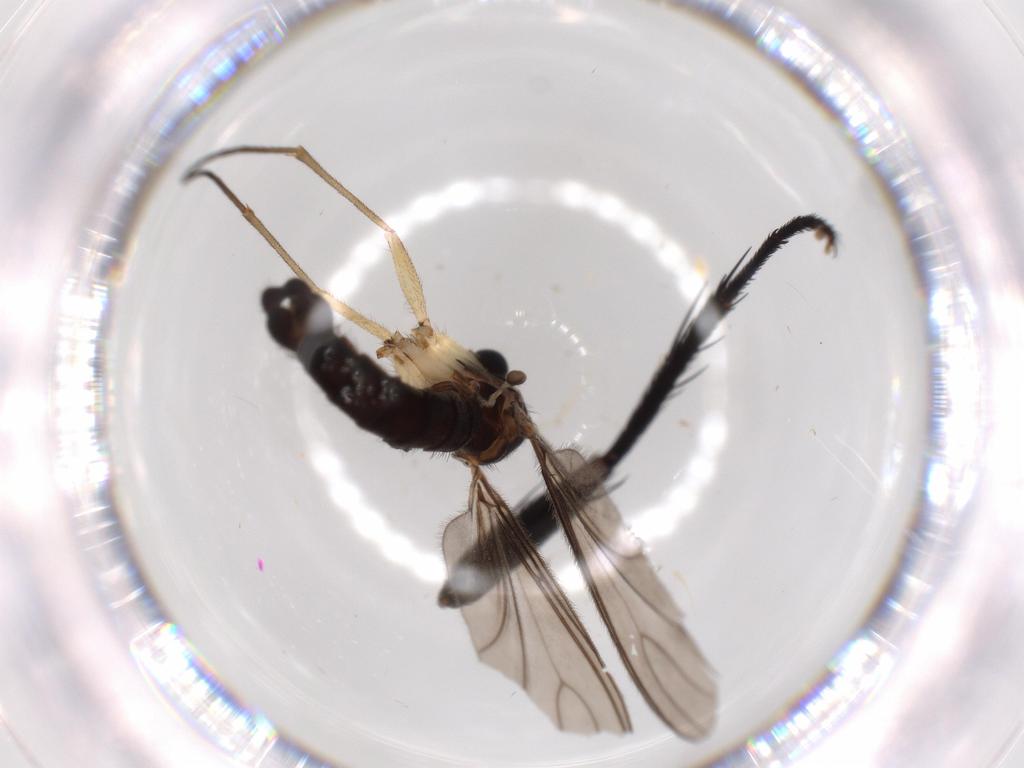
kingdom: Animalia
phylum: Arthropoda
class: Insecta
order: Diptera
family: Sciaridae
